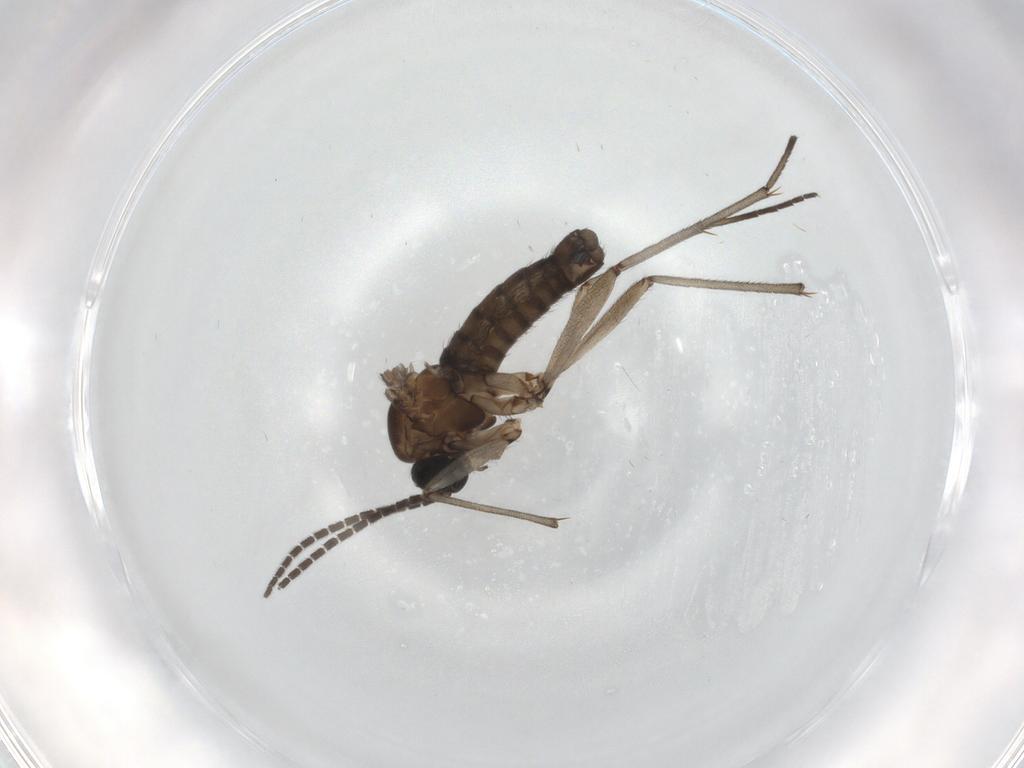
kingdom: Animalia
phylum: Arthropoda
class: Insecta
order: Diptera
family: Sciaridae
